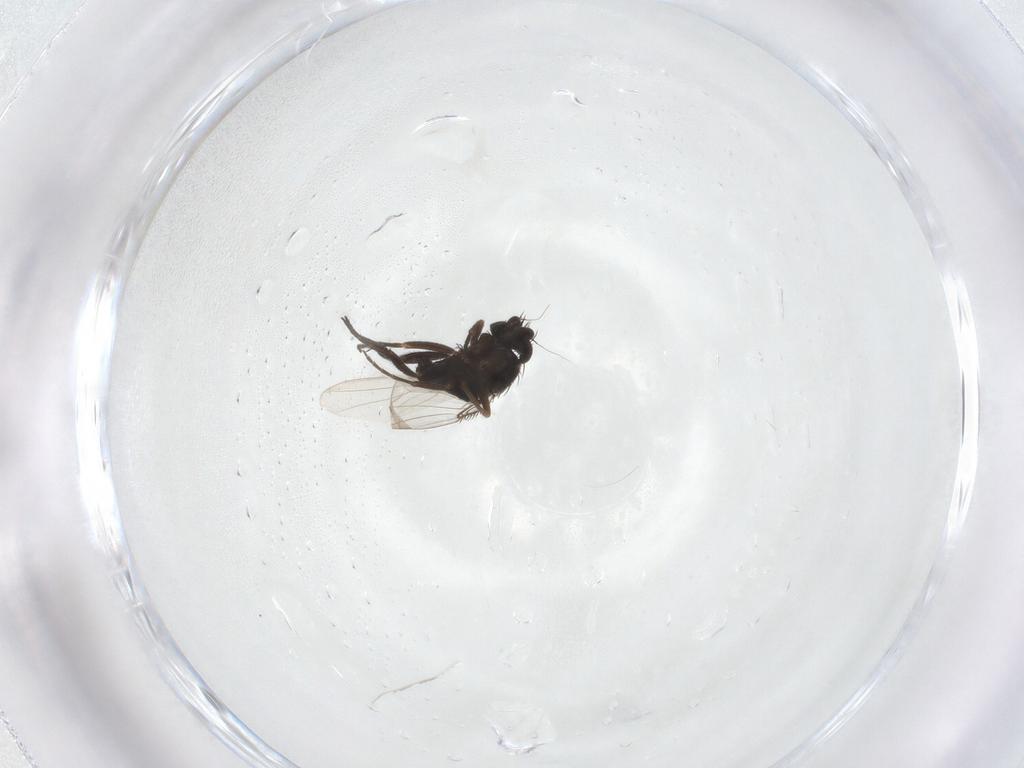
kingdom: Animalia
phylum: Arthropoda
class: Insecta
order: Diptera
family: Phoridae
